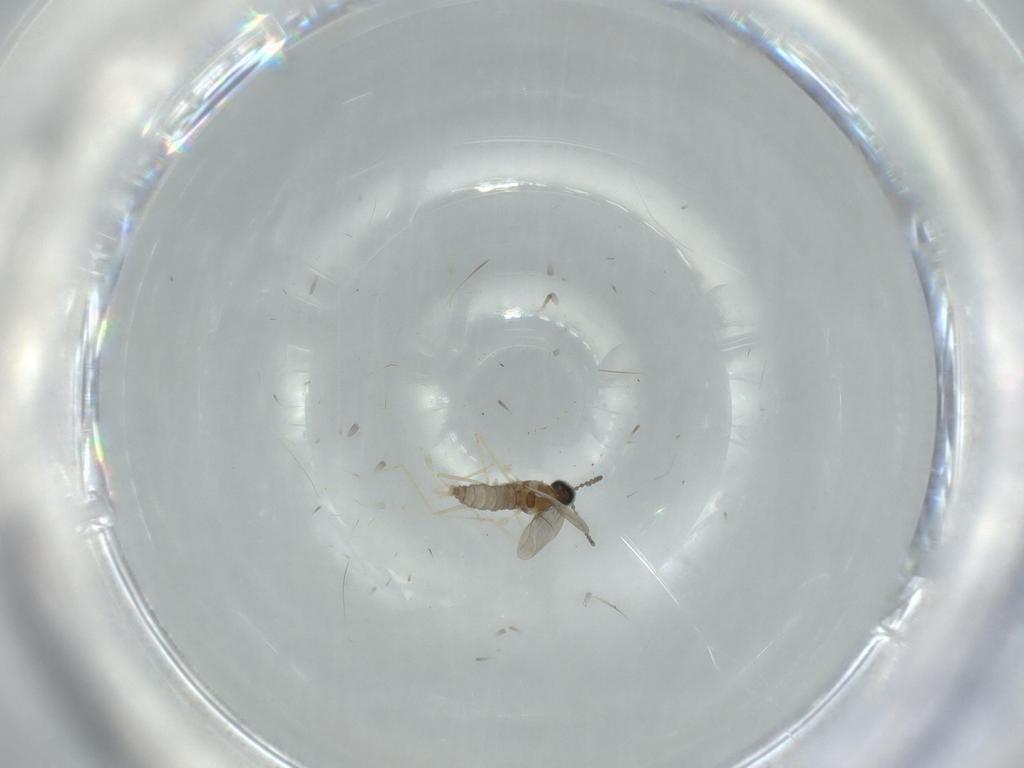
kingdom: Animalia
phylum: Arthropoda
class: Insecta
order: Diptera
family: Cecidomyiidae
